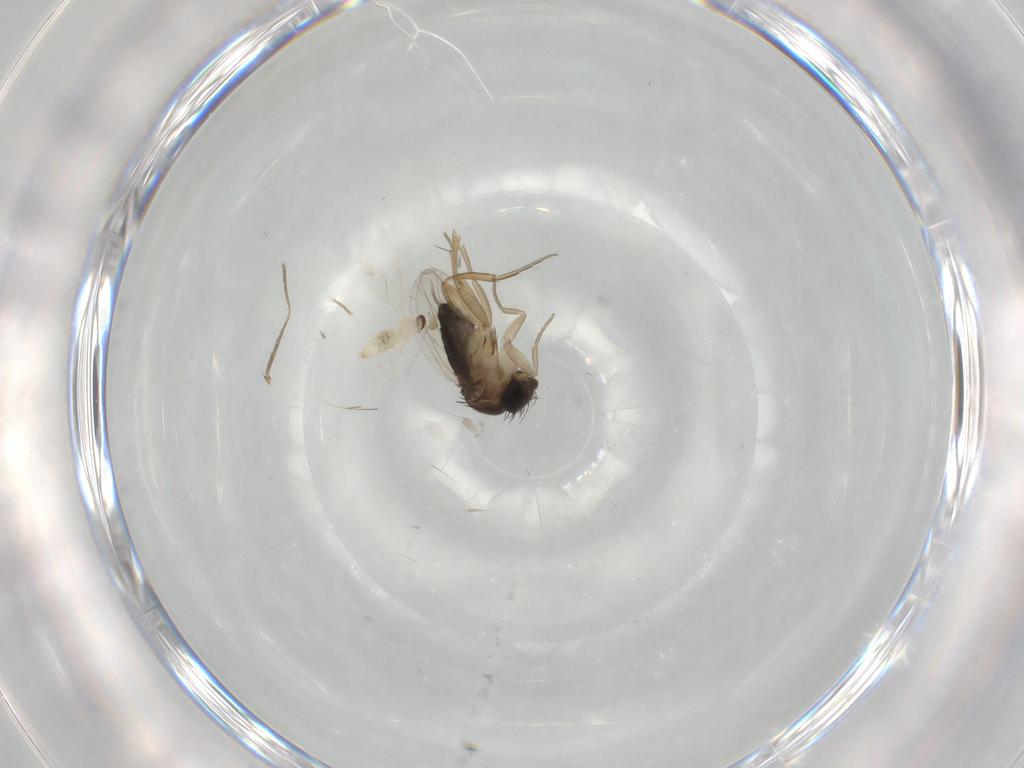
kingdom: Animalia
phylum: Arthropoda
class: Insecta
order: Diptera
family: Phoridae
